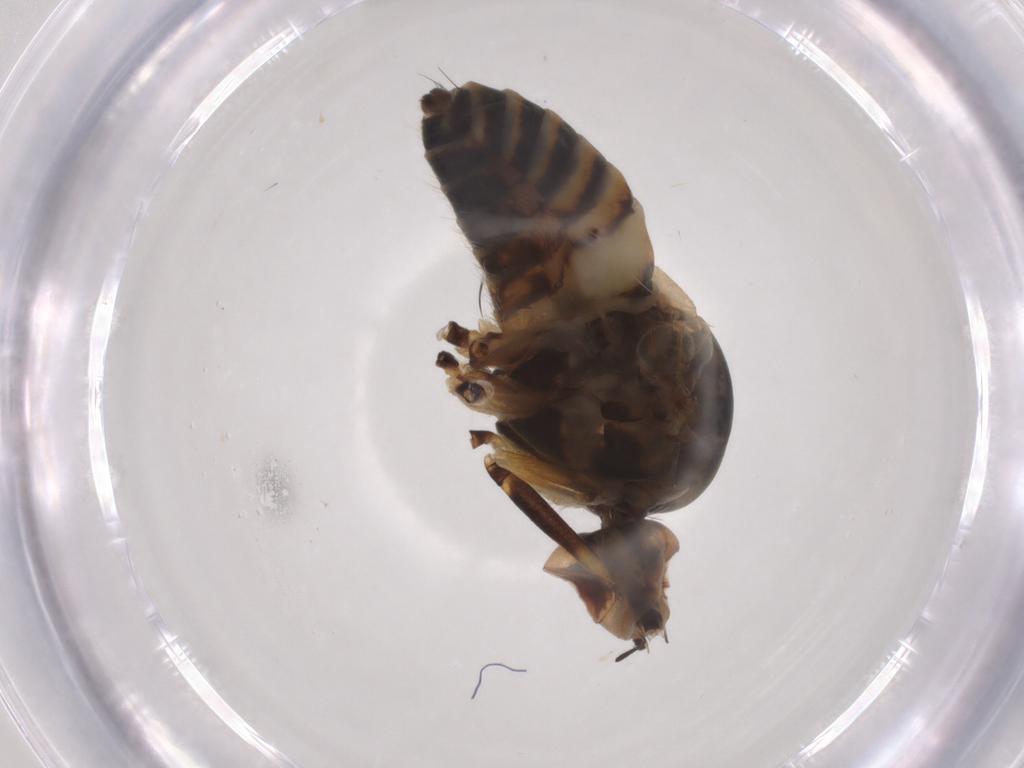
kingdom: Animalia
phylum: Arthropoda
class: Insecta
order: Diptera
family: Bombyliidae
